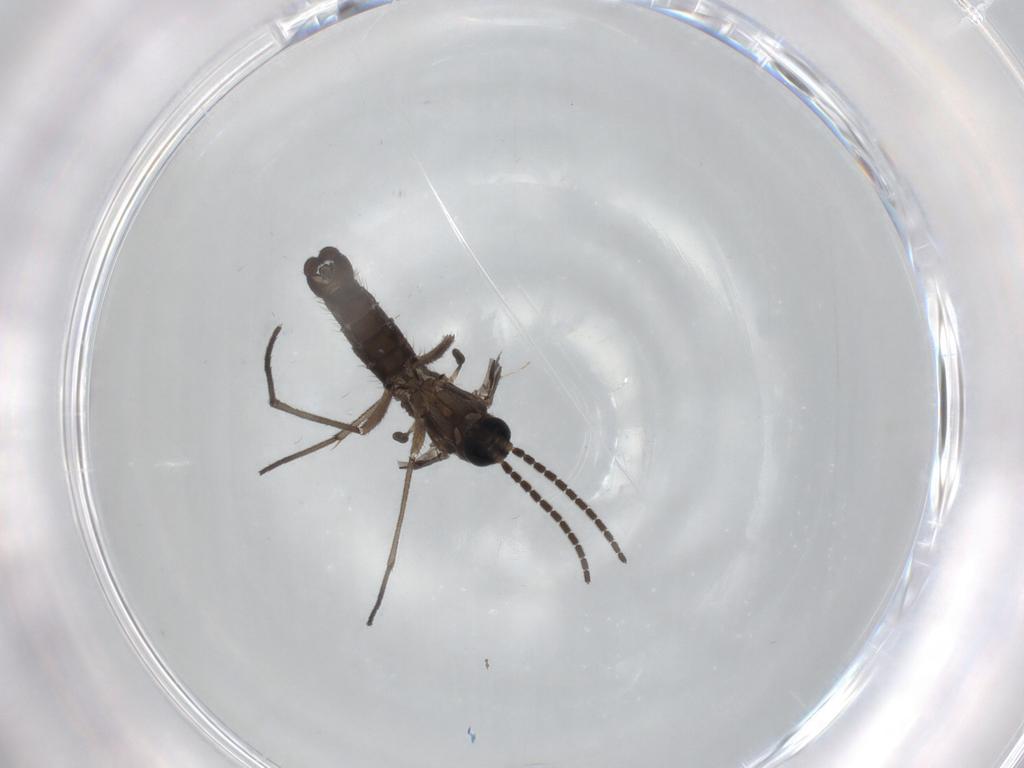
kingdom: Animalia
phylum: Arthropoda
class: Insecta
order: Diptera
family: Sciaridae
